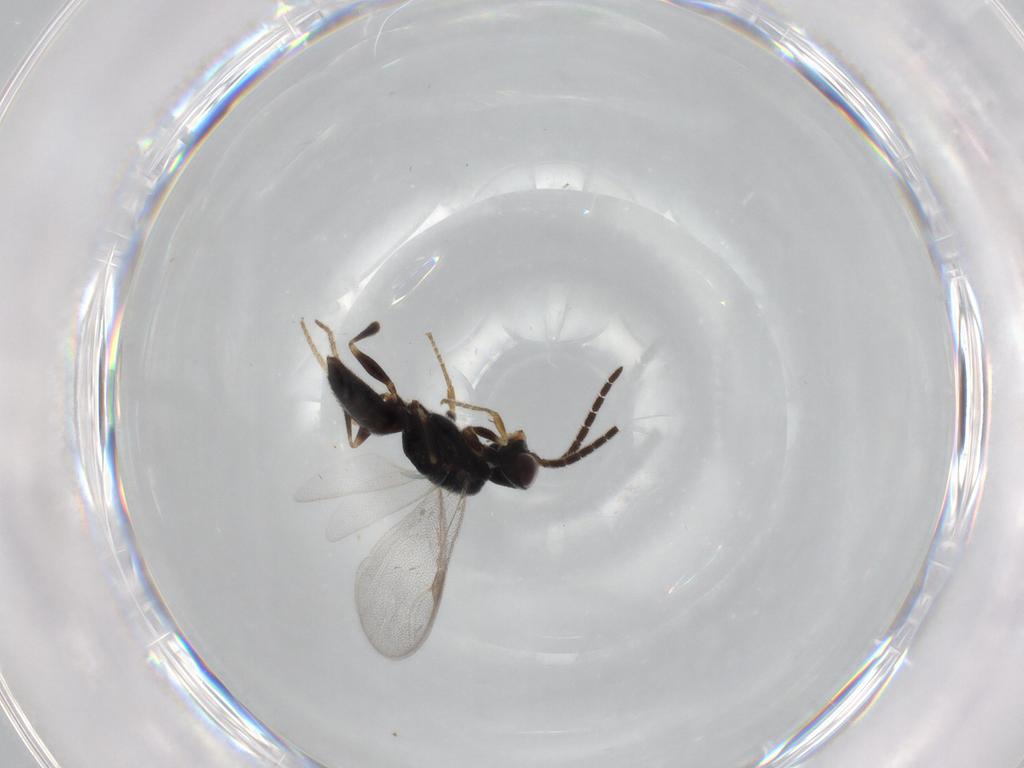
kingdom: Animalia
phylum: Arthropoda
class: Insecta
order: Hymenoptera
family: Dryinidae
